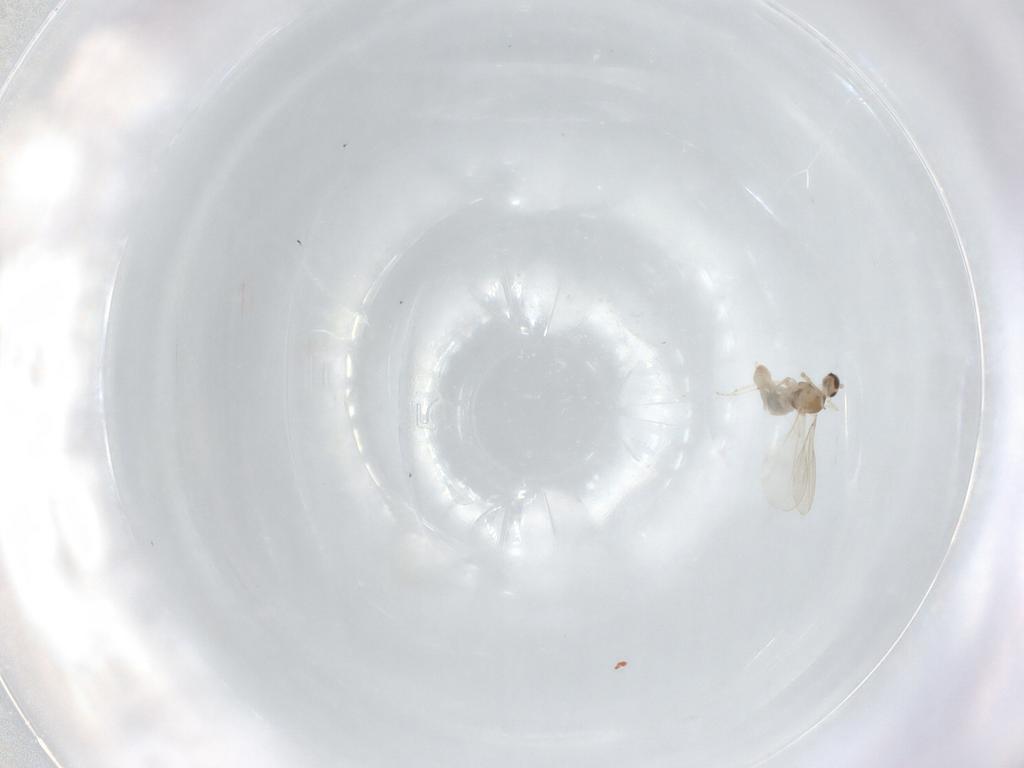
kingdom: Animalia
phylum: Arthropoda
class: Insecta
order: Diptera
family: Cecidomyiidae
